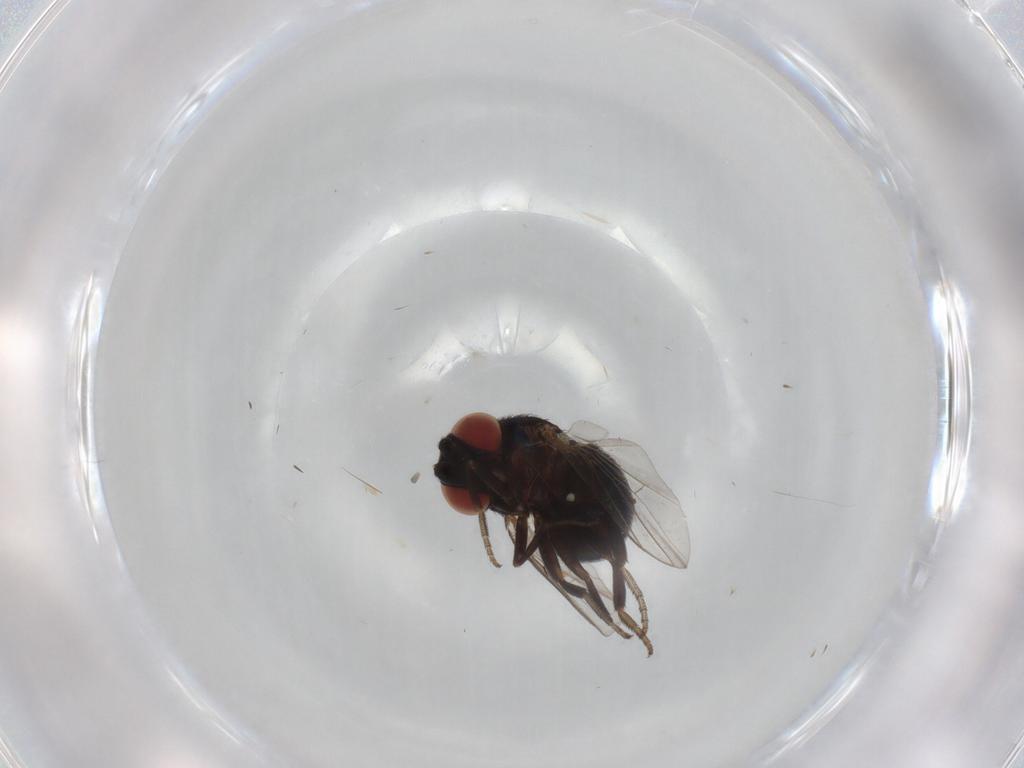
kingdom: Animalia
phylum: Arthropoda
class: Insecta
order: Diptera
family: Cryptochetidae
